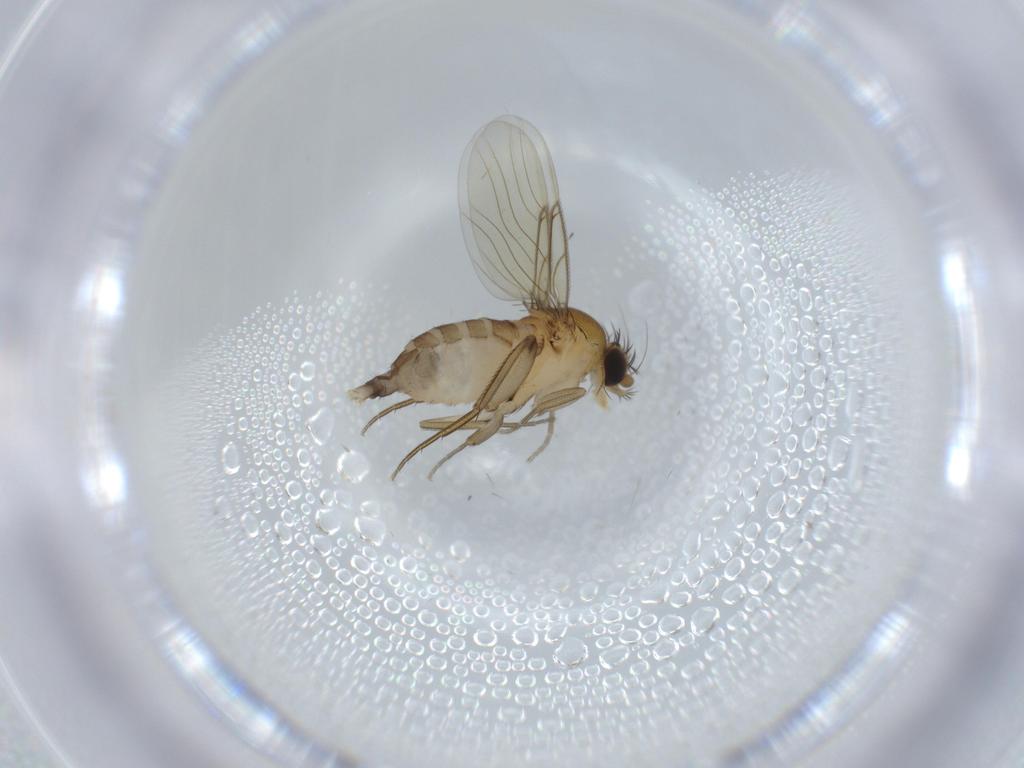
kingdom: Animalia
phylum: Arthropoda
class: Insecta
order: Diptera
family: Phoridae
